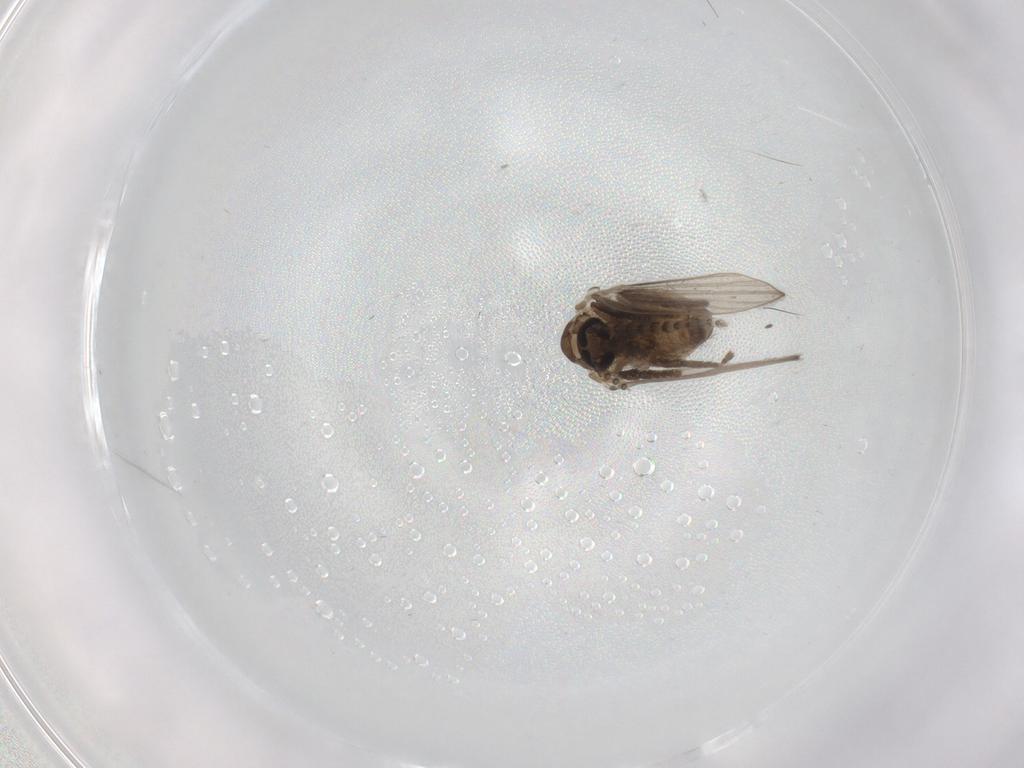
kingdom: Animalia
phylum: Arthropoda
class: Insecta
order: Diptera
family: Psychodidae
